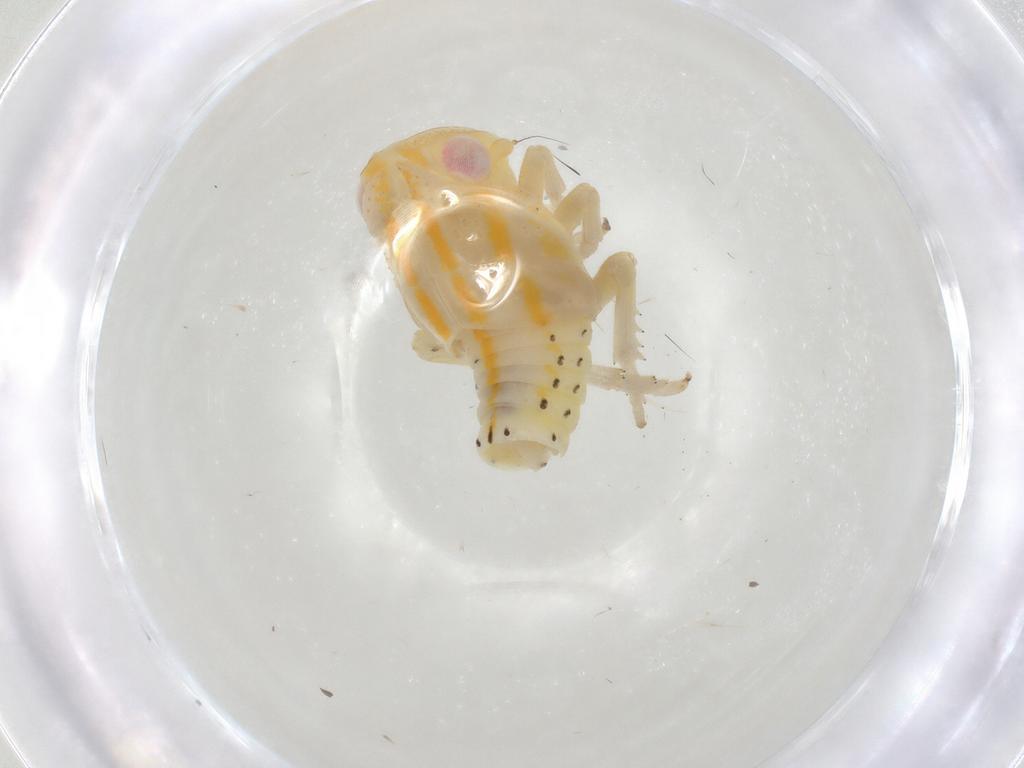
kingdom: Animalia
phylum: Arthropoda
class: Insecta
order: Hemiptera
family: Tropiduchidae
